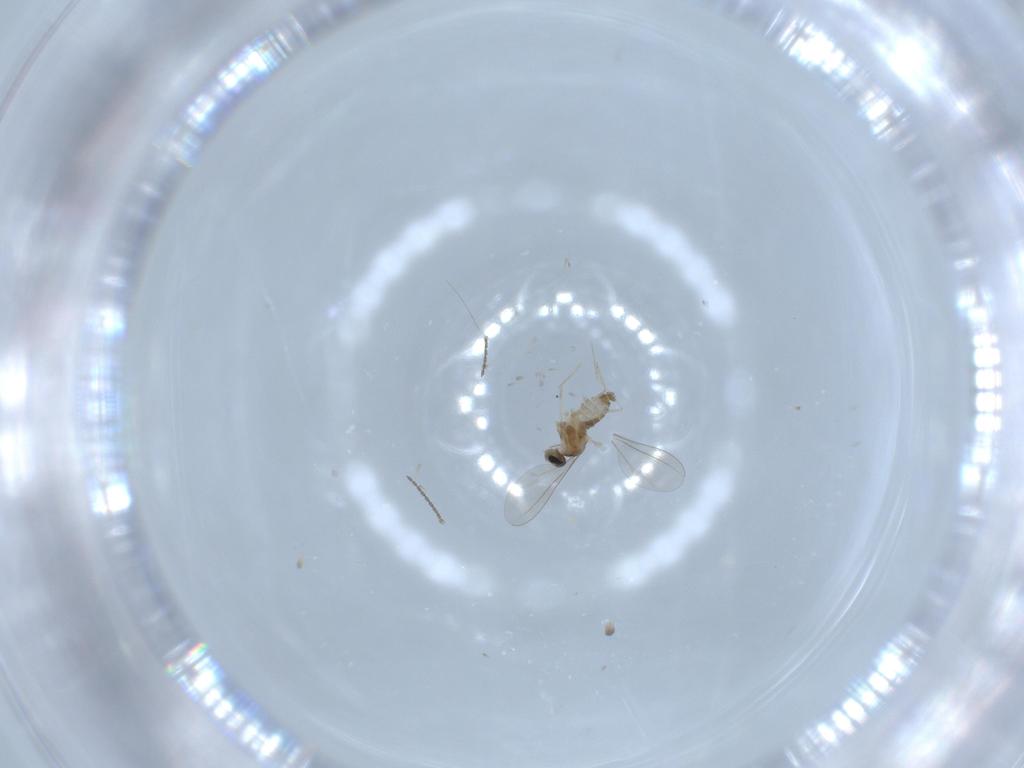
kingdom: Animalia
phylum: Arthropoda
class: Insecta
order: Diptera
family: Cecidomyiidae
